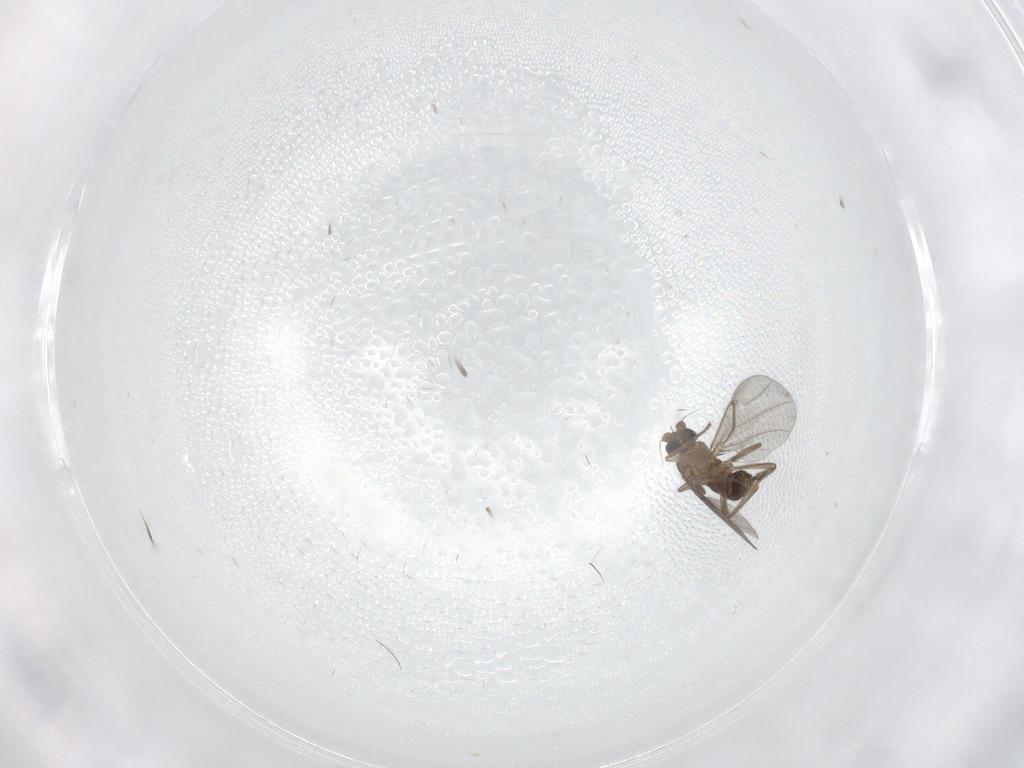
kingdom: Animalia
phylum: Arthropoda
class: Insecta
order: Diptera
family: Phoridae
